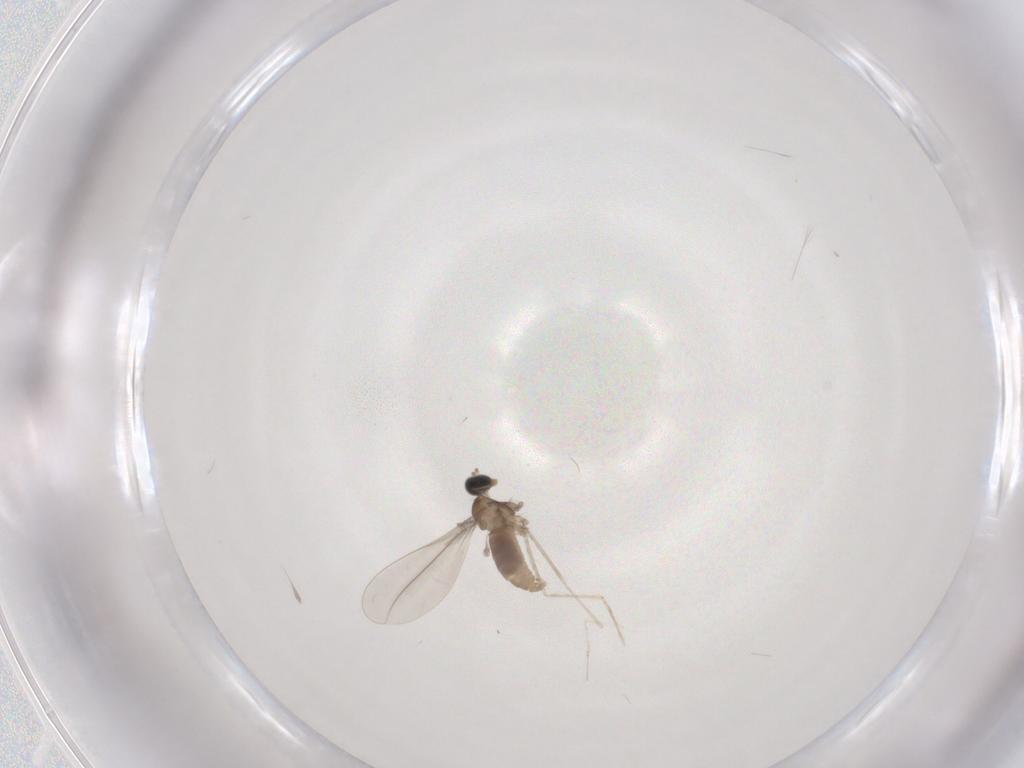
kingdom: Animalia
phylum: Arthropoda
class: Insecta
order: Diptera
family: Cecidomyiidae
